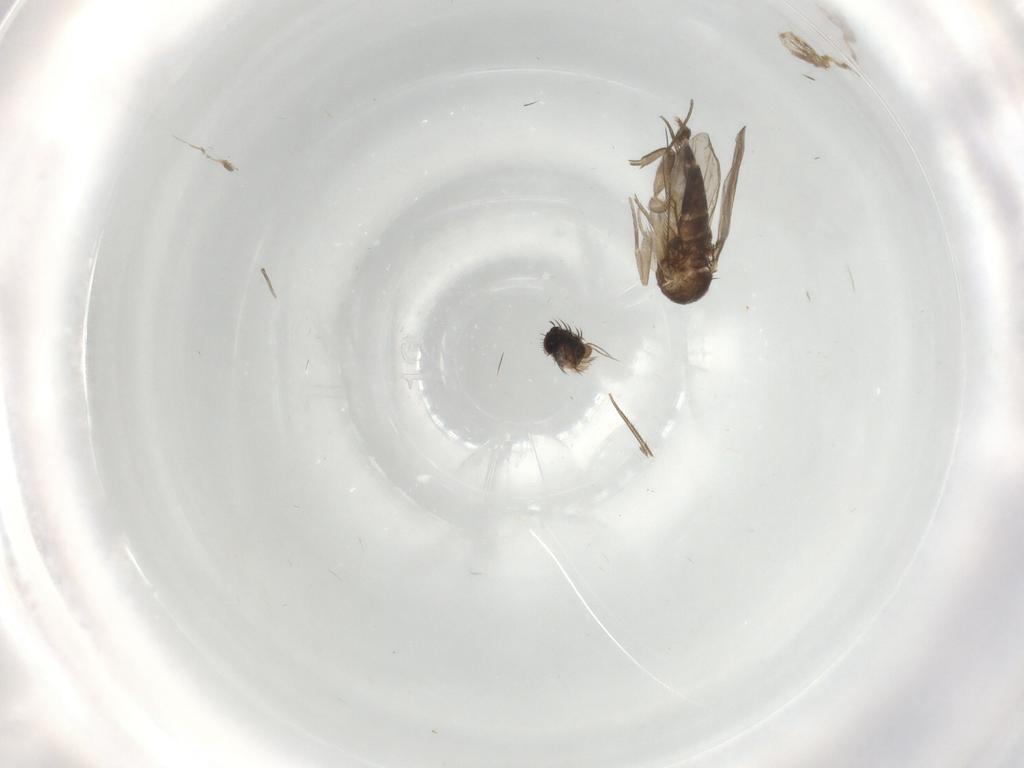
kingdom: Animalia
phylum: Arthropoda
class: Insecta
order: Diptera
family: Phoridae
